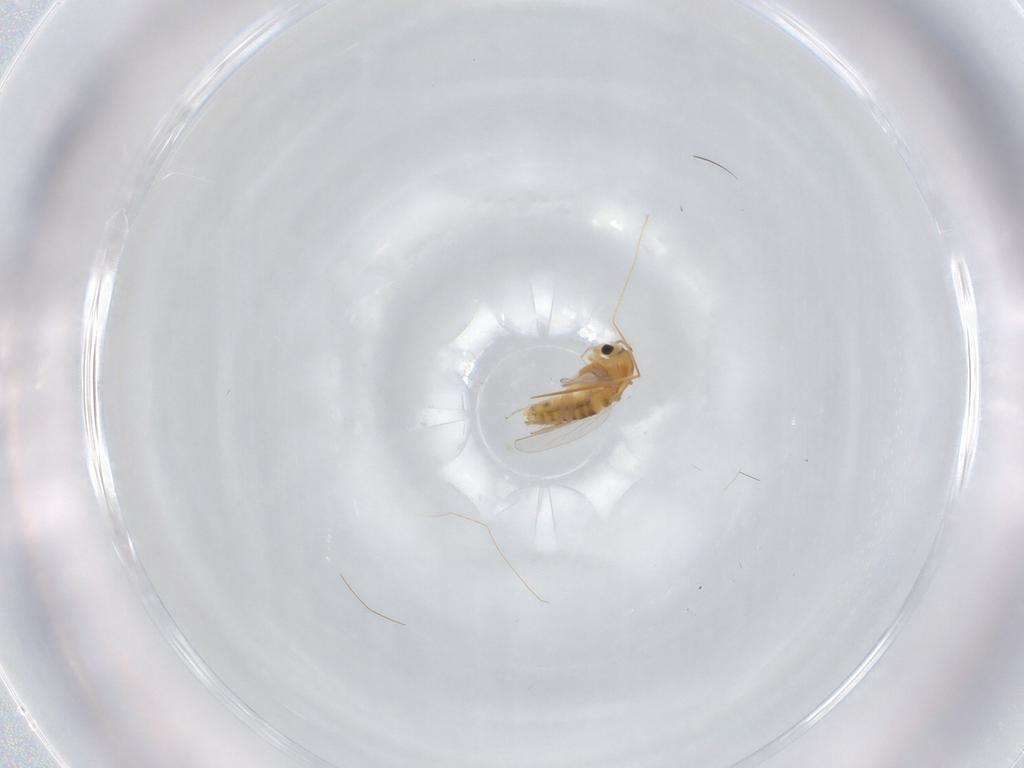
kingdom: Animalia
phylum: Arthropoda
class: Insecta
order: Diptera
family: Chironomidae
